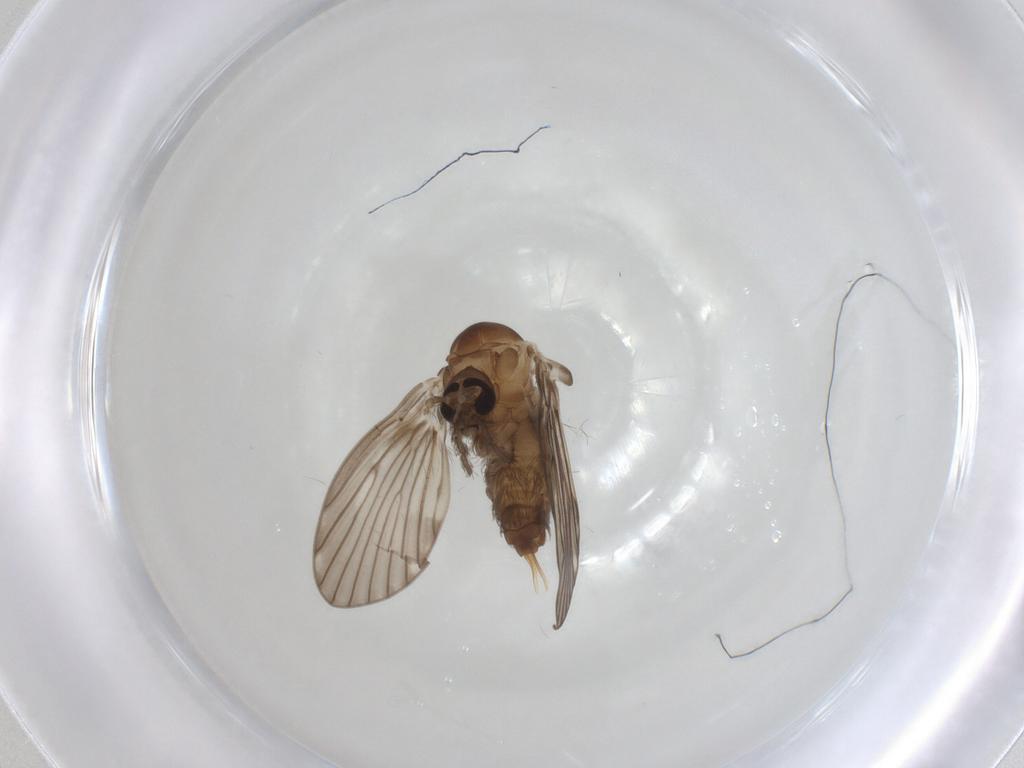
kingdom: Animalia
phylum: Arthropoda
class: Insecta
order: Diptera
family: Psychodidae
